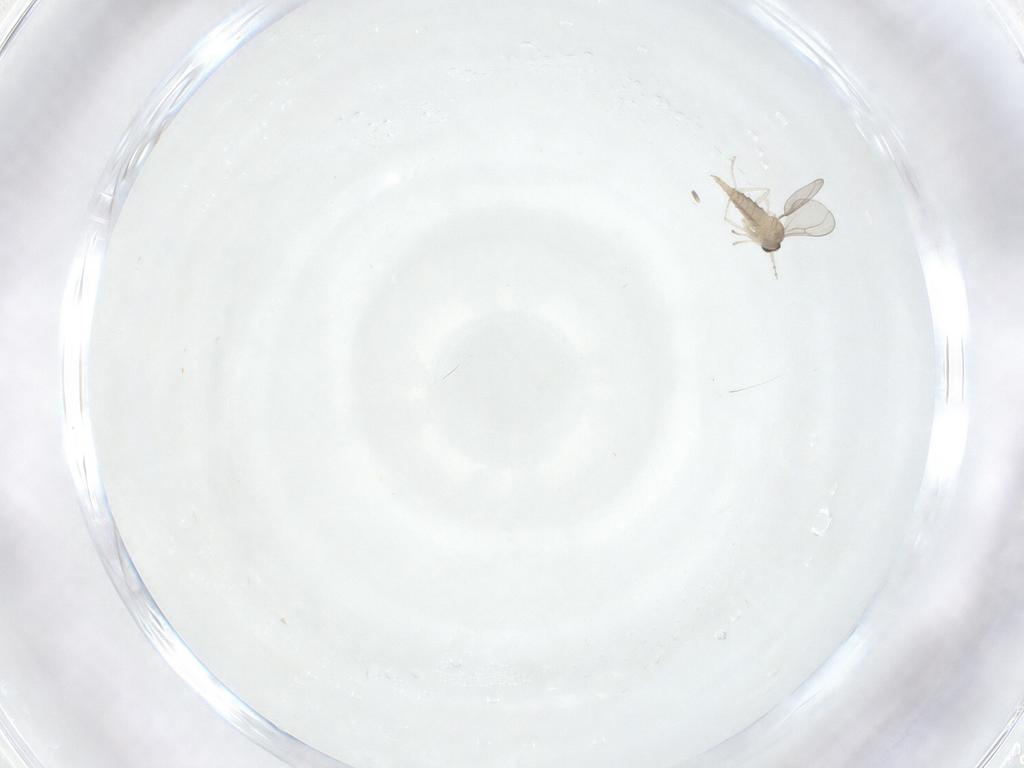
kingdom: Animalia
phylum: Arthropoda
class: Insecta
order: Diptera
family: Cecidomyiidae
